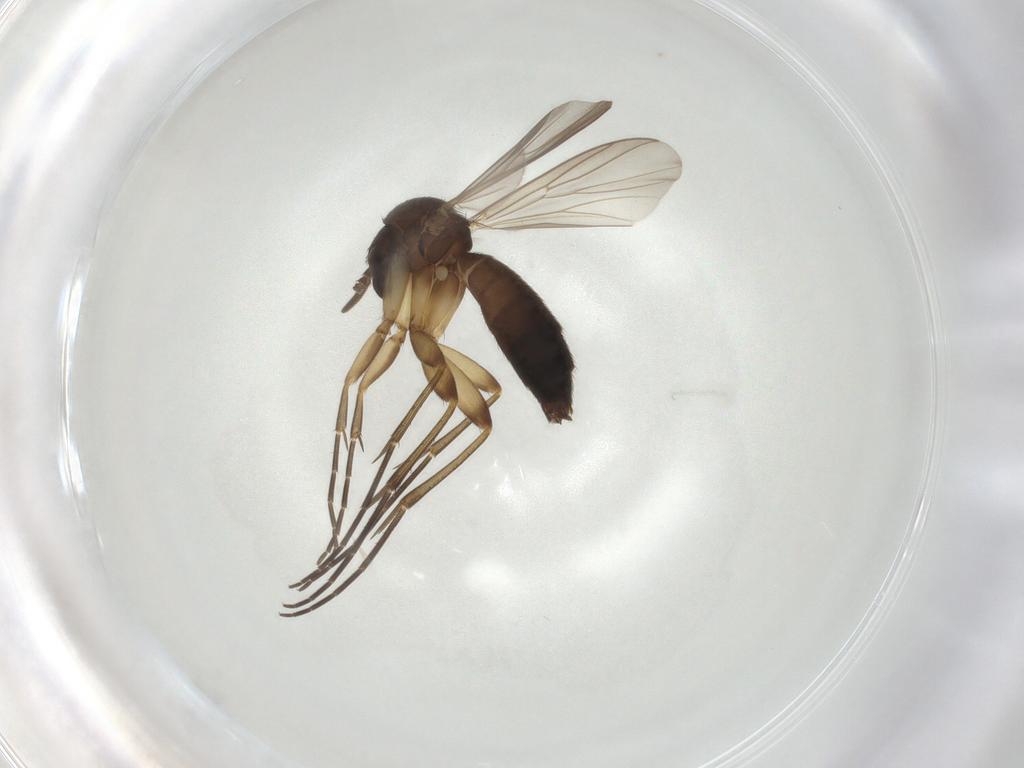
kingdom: Animalia
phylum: Arthropoda
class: Insecta
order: Diptera
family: Mycetophilidae
